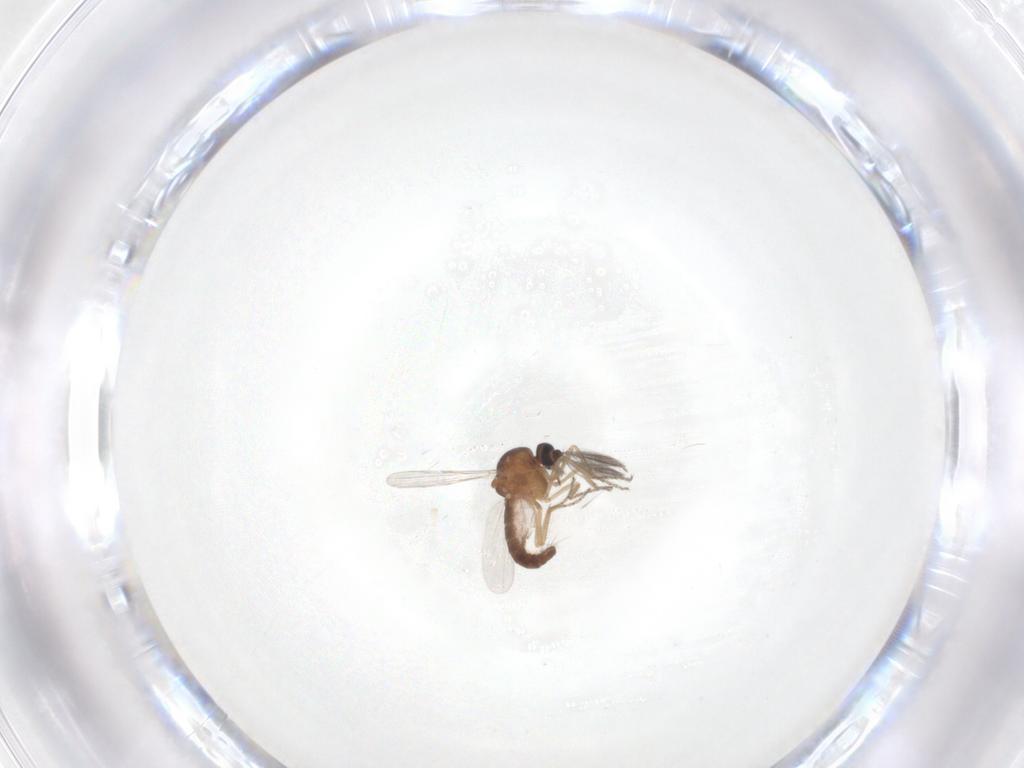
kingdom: Animalia
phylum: Arthropoda
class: Insecta
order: Diptera
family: Ceratopogonidae
